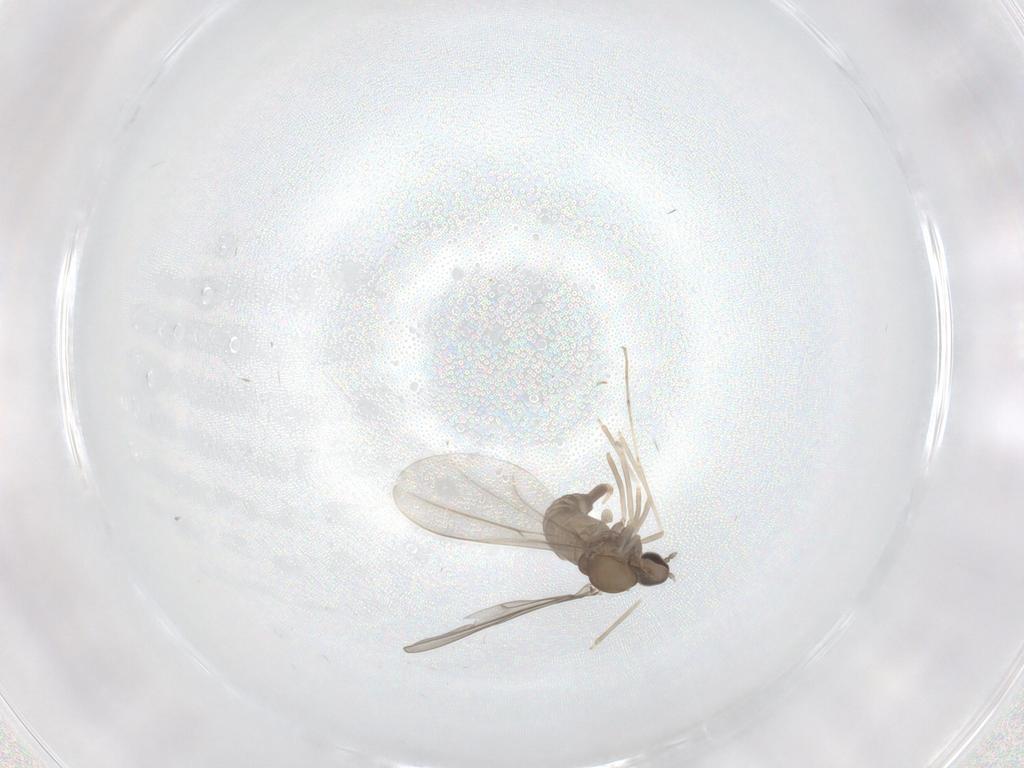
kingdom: Animalia
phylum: Arthropoda
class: Insecta
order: Diptera
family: Cecidomyiidae
